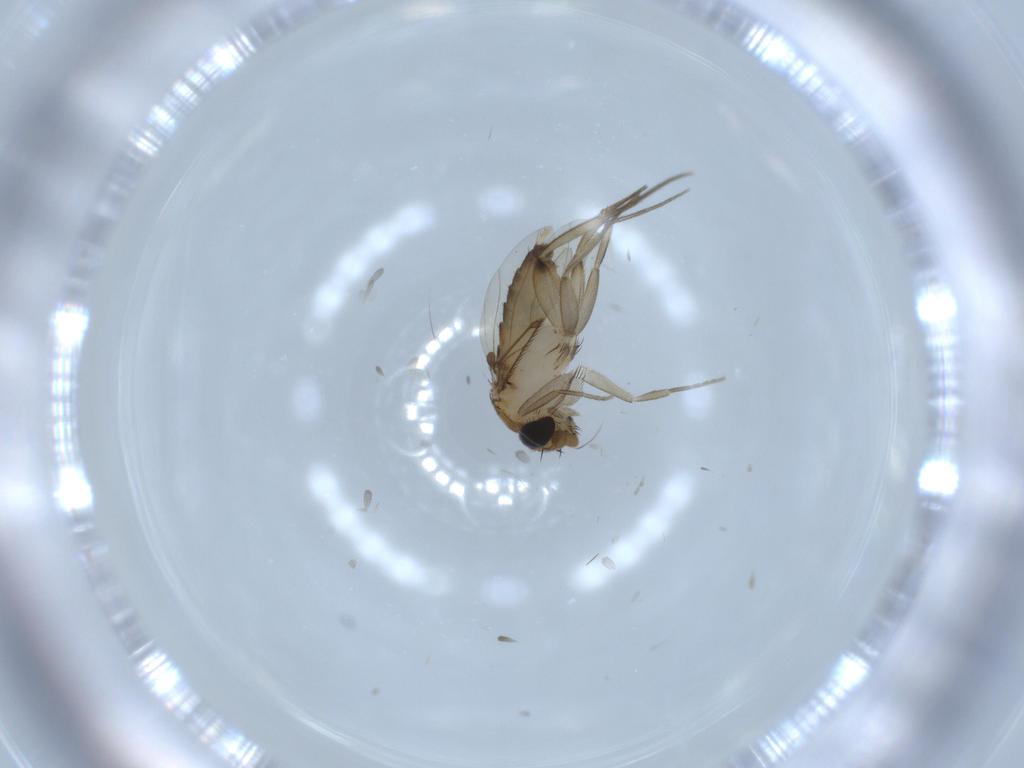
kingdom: Animalia
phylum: Arthropoda
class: Insecta
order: Diptera
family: Phoridae
